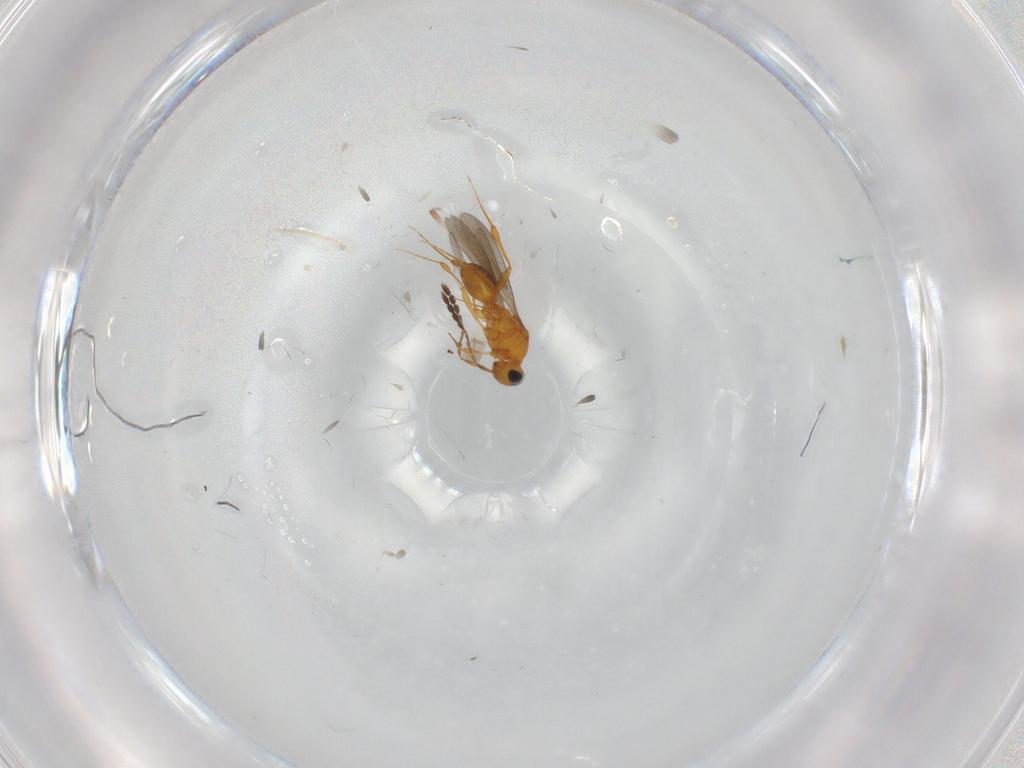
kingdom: Animalia
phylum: Arthropoda
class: Insecta
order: Hymenoptera
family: Platygastridae
